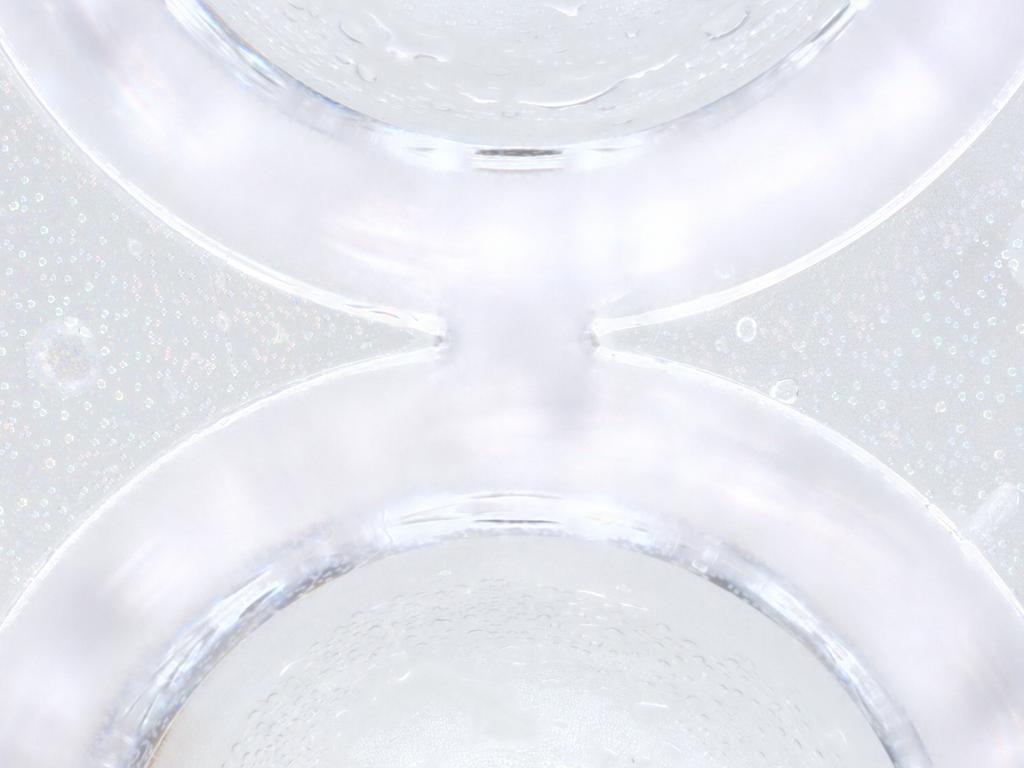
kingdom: Animalia
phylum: Arthropoda
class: Insecta
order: Diptera
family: Psychodidae
